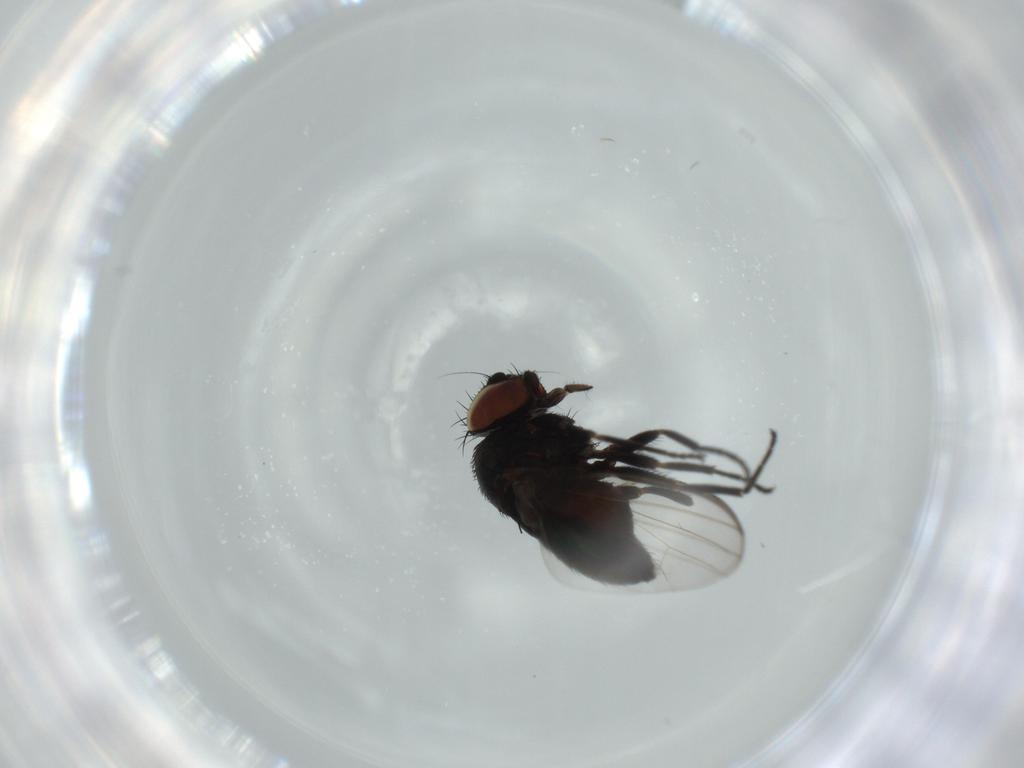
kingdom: Animalia
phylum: Arthropoda
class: Insecta
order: Diptera
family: Milichiidae
